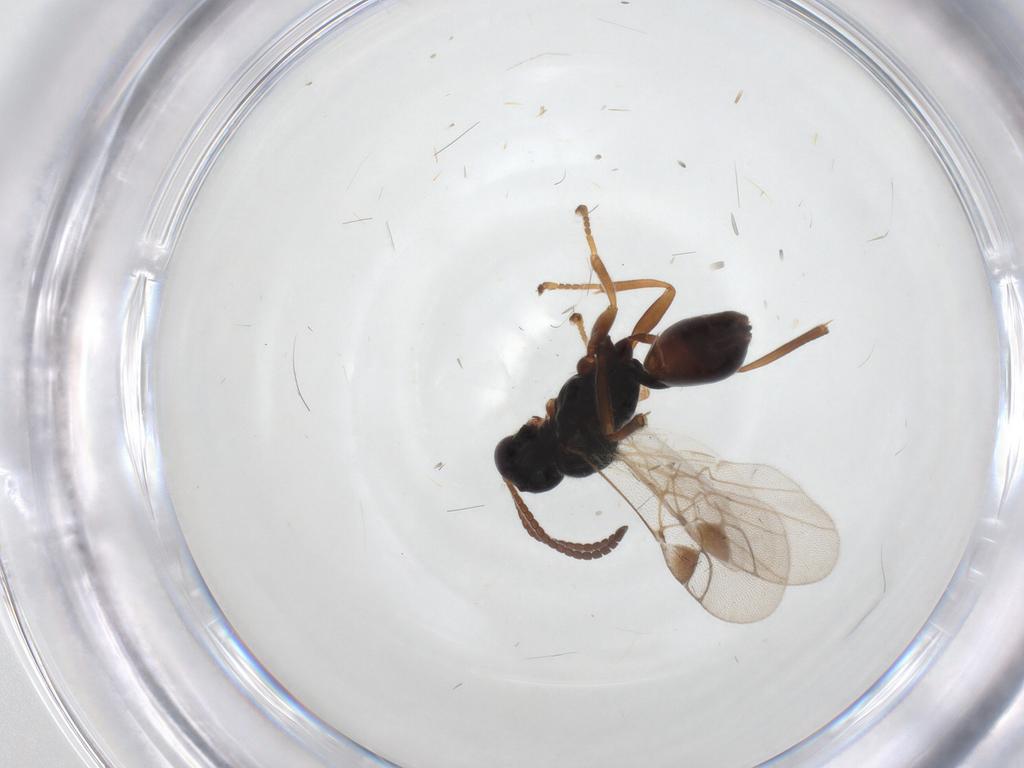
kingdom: Animalia
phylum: Arthropoda
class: Insecta
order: Hymenoptera
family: Braconidae
